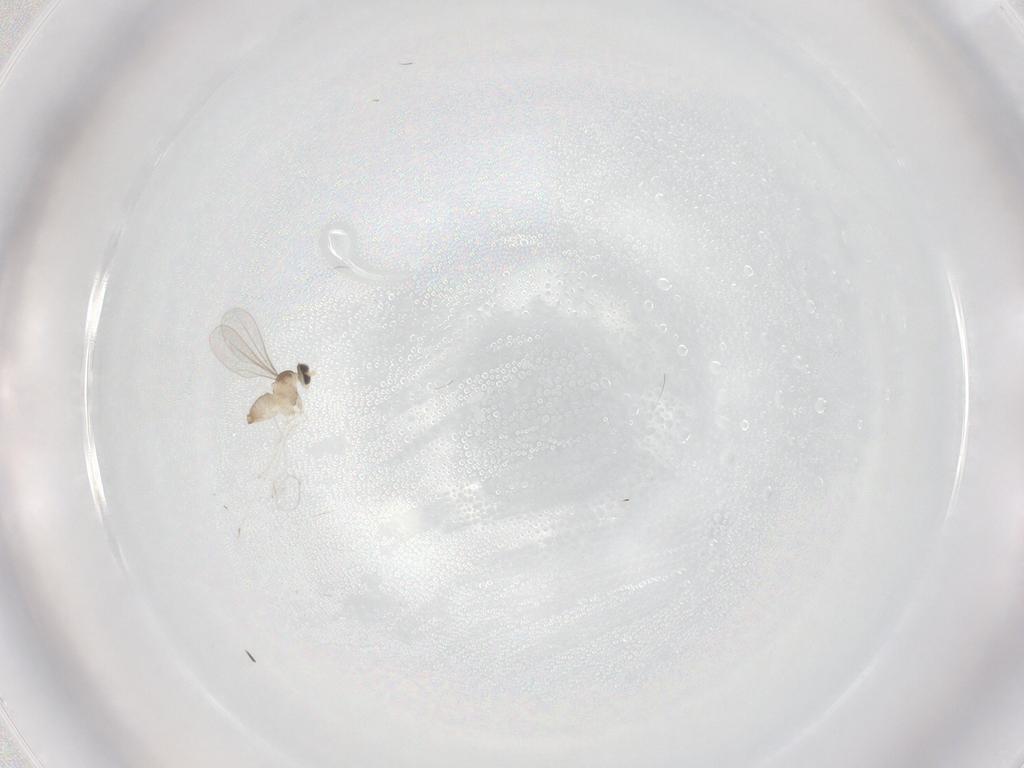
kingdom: Animalia
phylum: Arthropoda
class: Insecta
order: Diptera
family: Cecidomyiidae
